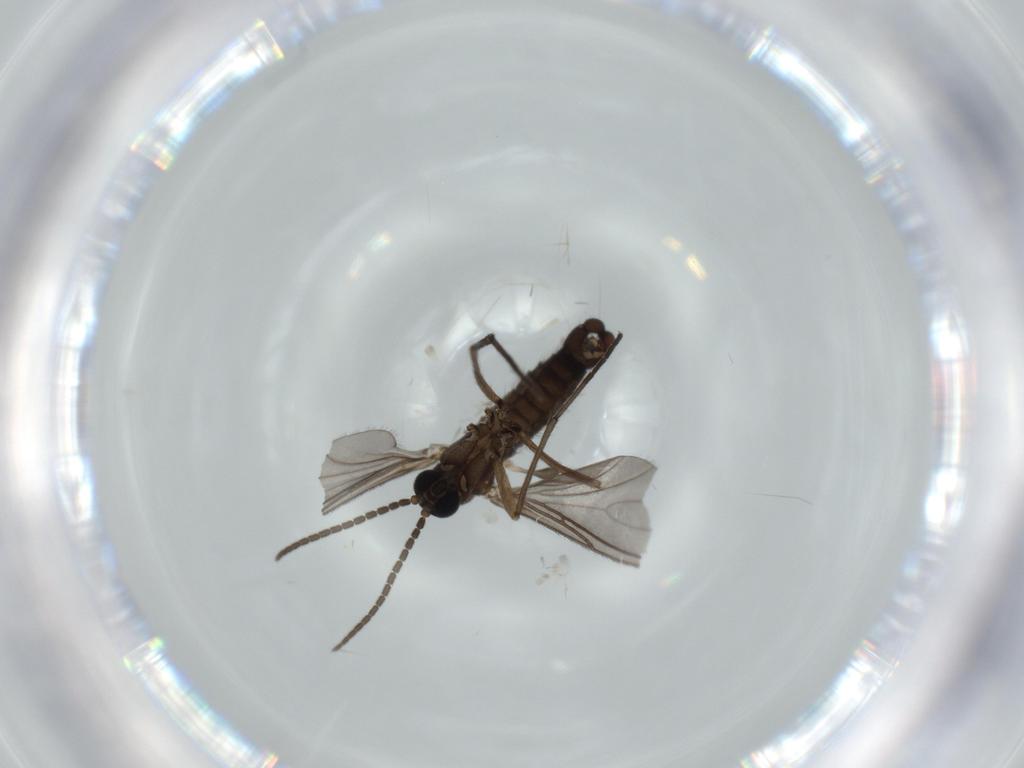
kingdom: Animalia
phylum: Arthropoda
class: Insecta
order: Diptera
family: Sciaridae
